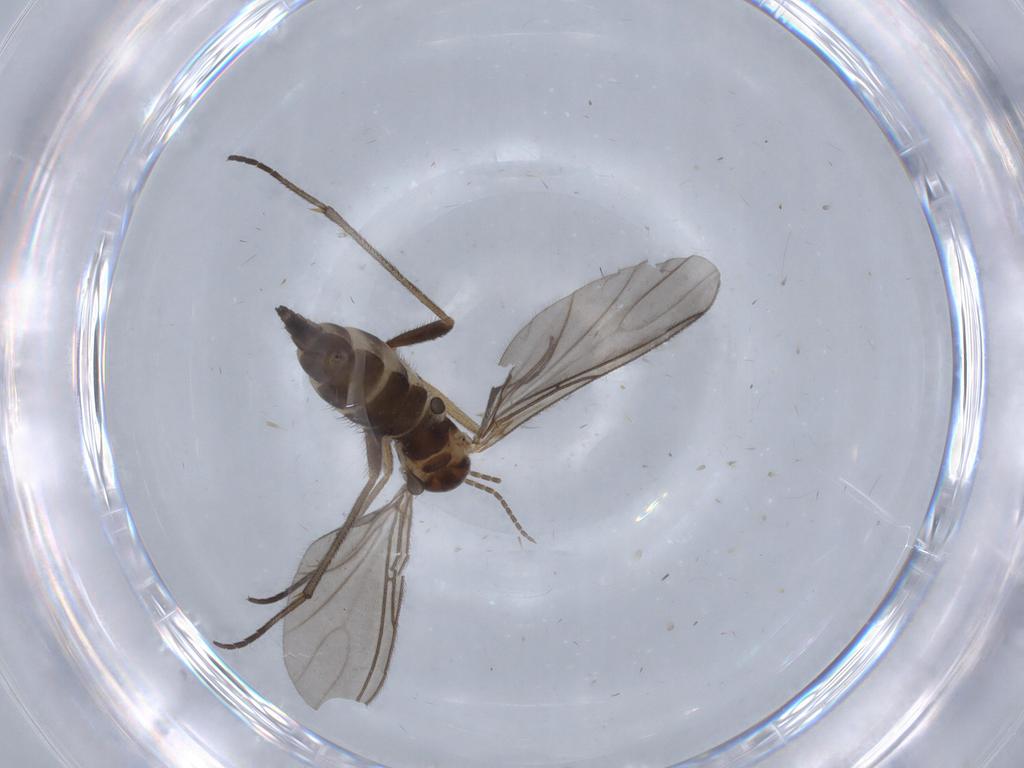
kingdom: Animalia
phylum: Arthropoda
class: Insecta
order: Diptera
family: Sciaridae
